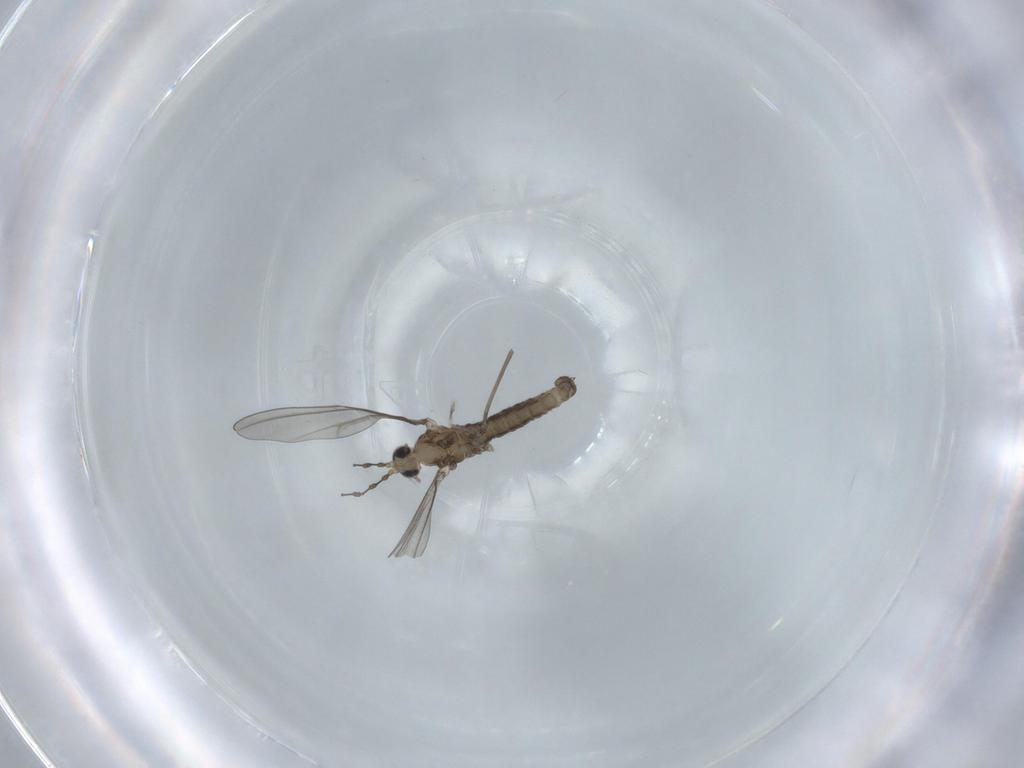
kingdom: Animalia
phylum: Arthropoda
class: Insecta
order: Diptera
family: Cecidomyiidae
